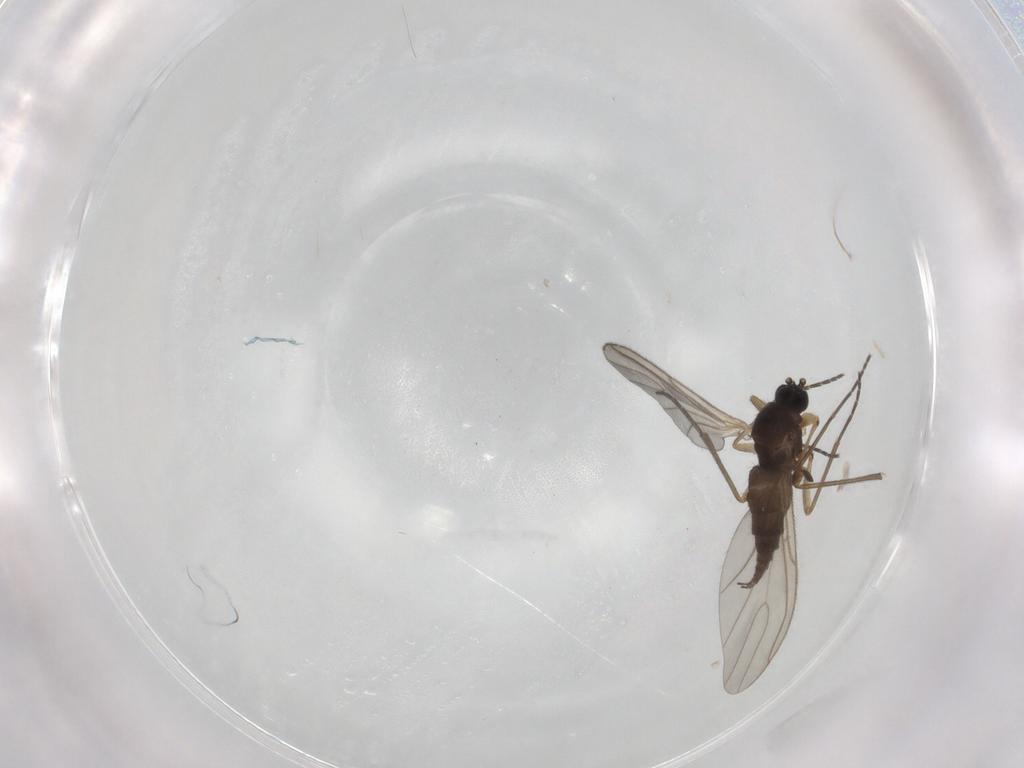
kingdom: Animalia
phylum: Arthropoda
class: Insecta
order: Diptera
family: Sciaridae
